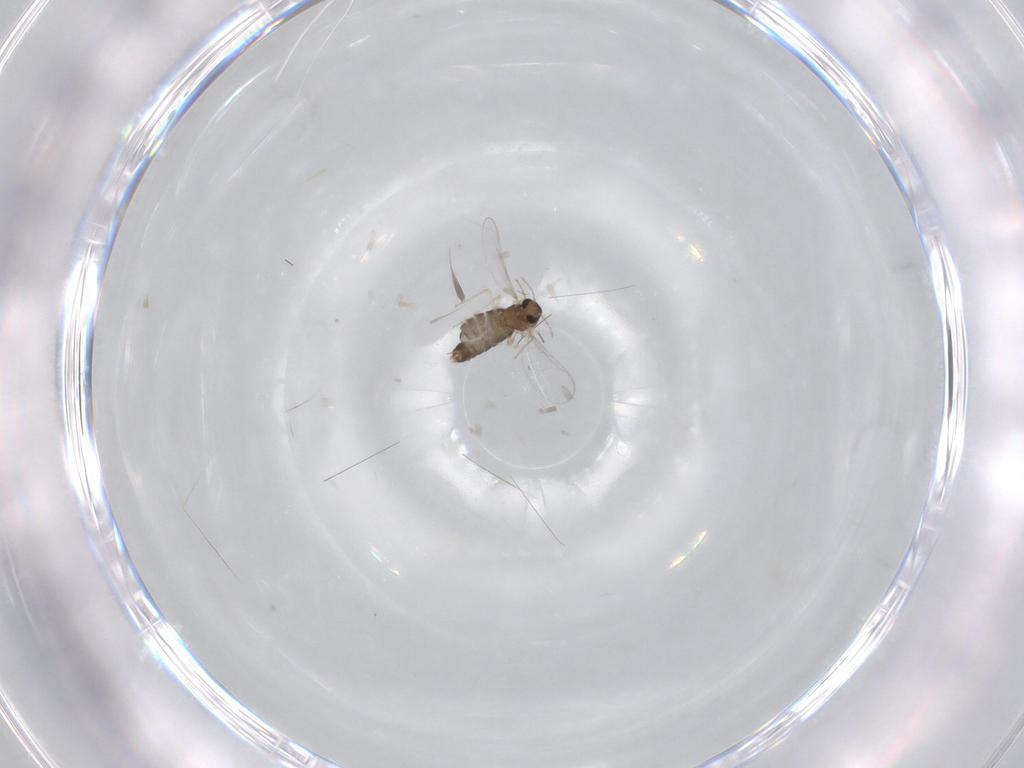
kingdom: Animalia
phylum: Arthropoda
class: Insecta
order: Diptera
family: Chironomidae
